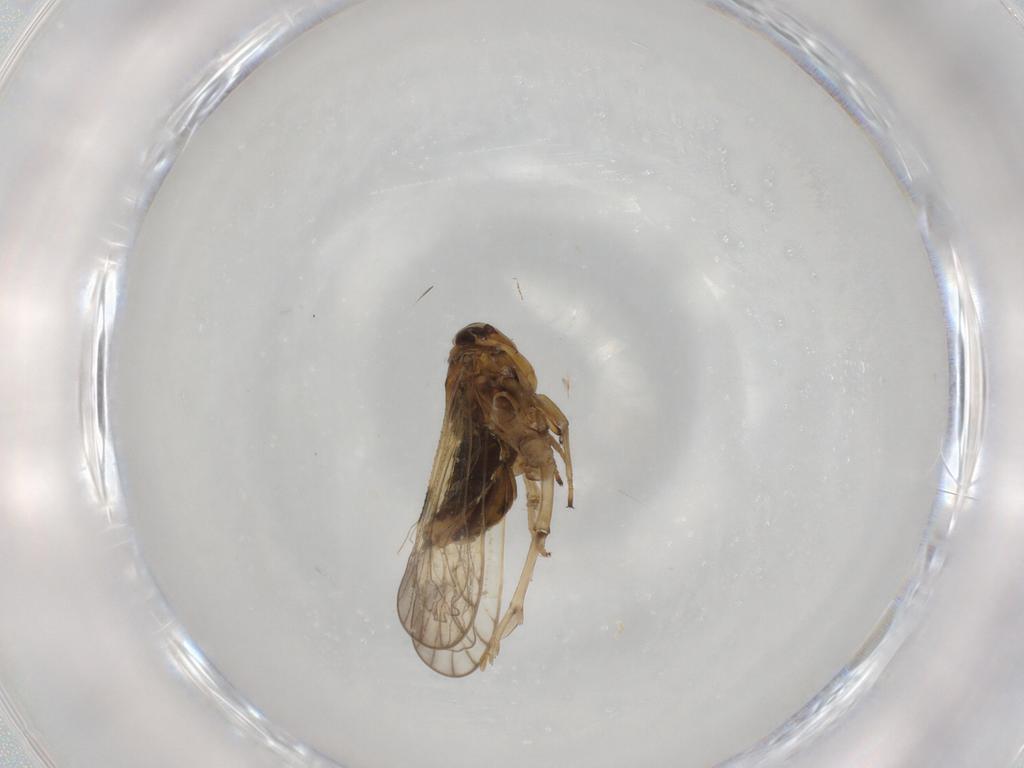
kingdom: Animalia
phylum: Arthropoda
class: Insecta
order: Hemiptera
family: Delphacidae
